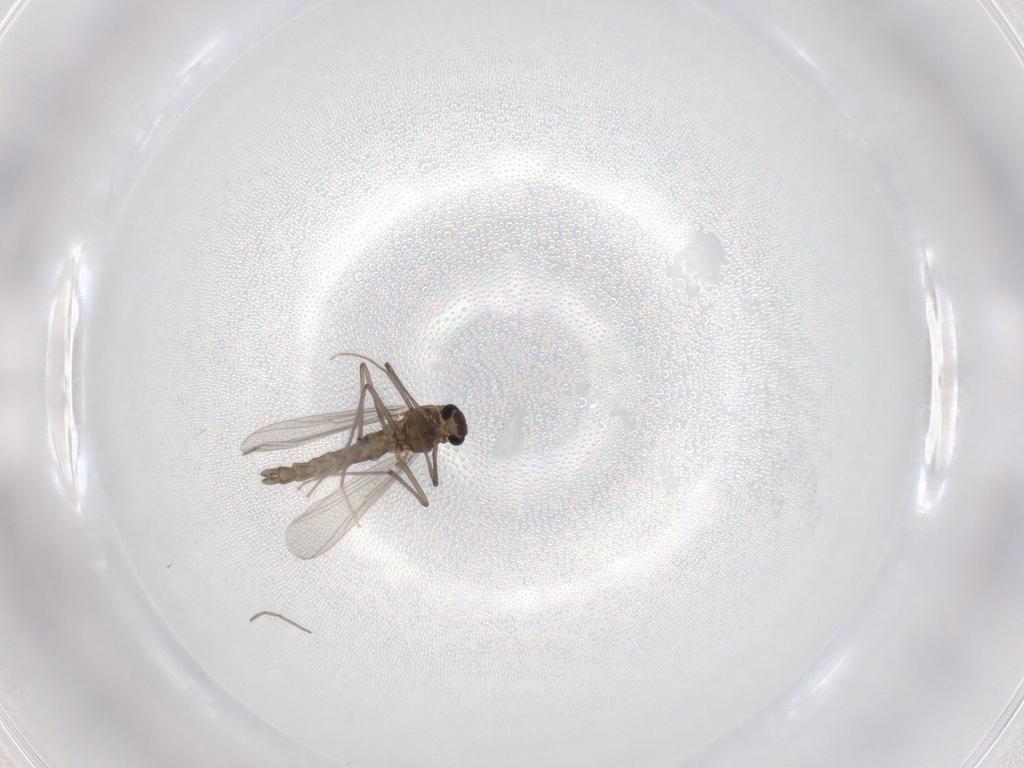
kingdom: Animalia
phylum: Arthropoda
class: Insecta
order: Diptera
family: Chironomidae
